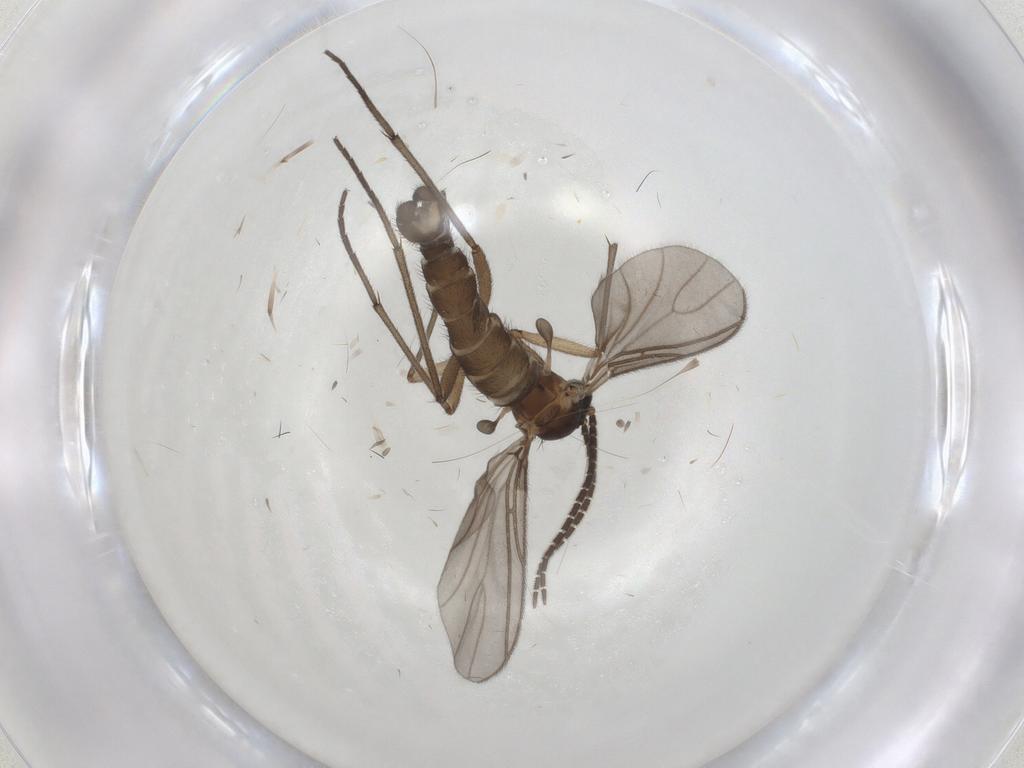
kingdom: Animalia
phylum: Arthropoda
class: Insecta
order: Diptera
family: Sciaridae
